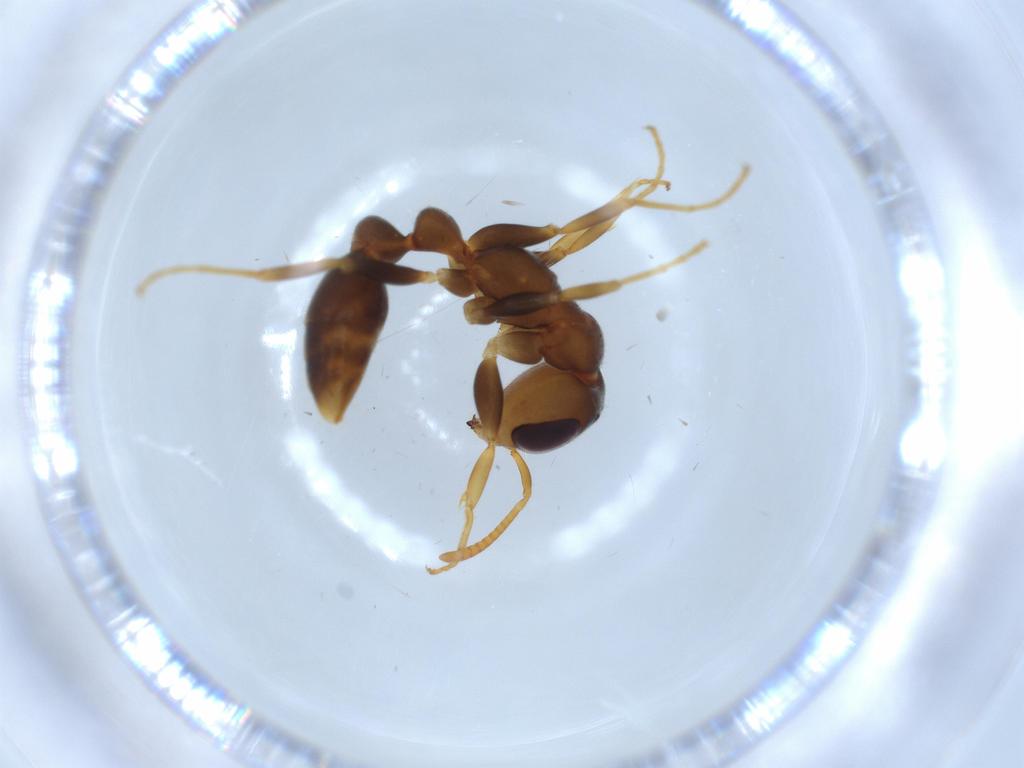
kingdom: Animalia
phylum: Arthropoda
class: Insecta
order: Hymenoptera
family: Formicidae
